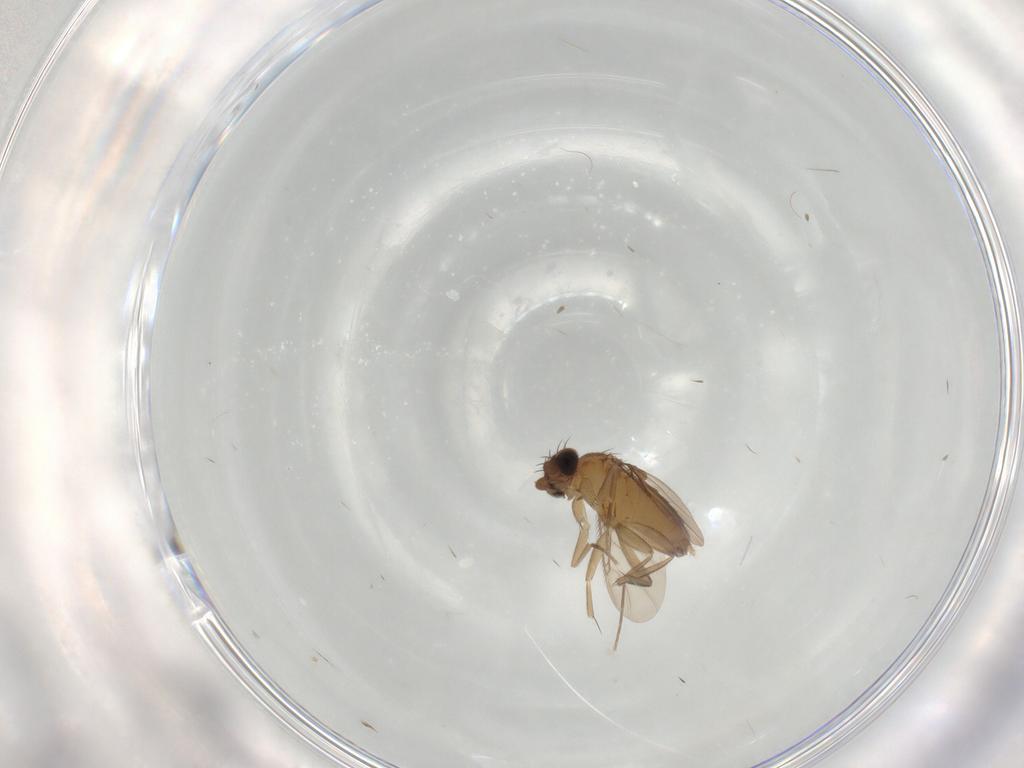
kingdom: Animalia
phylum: Arthropoda
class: Insecta
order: Diptera
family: Phoridae
